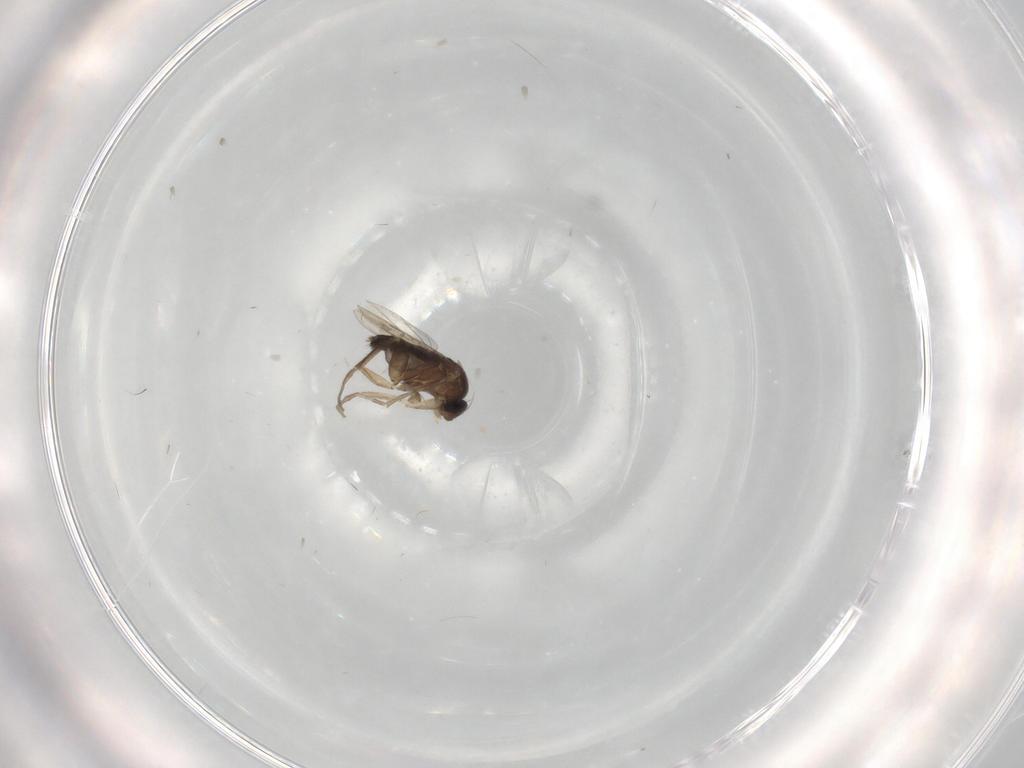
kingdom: Animalia
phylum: Arthropoda
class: Insecta
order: Diptera
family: Phoridae
